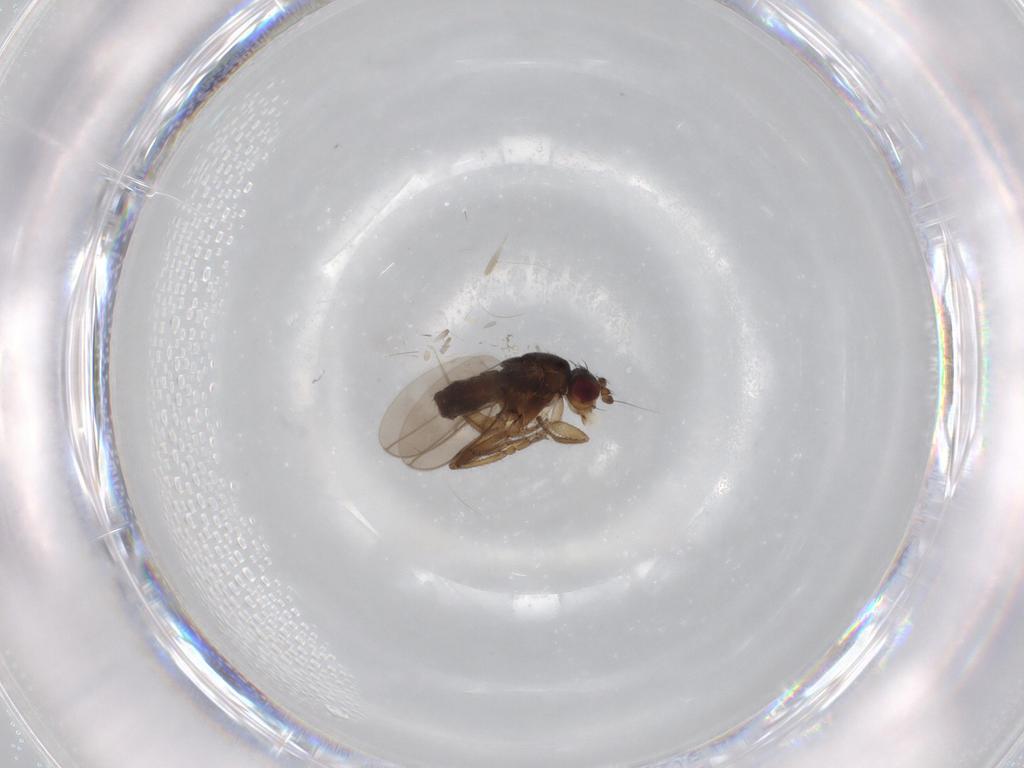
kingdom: Animalia
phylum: Arthropoda
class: Insecta
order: Diptera
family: Sphaeroceridae
